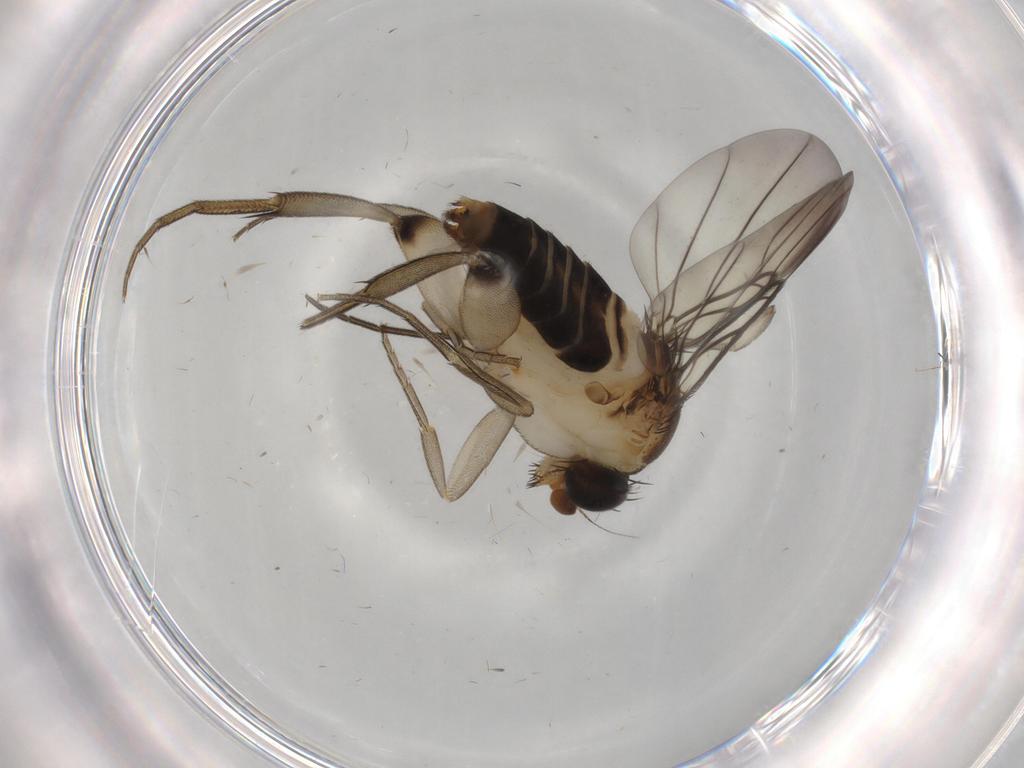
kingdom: Animalia
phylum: Arthropoda
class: Insecta
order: Diptera
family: Phoridae
